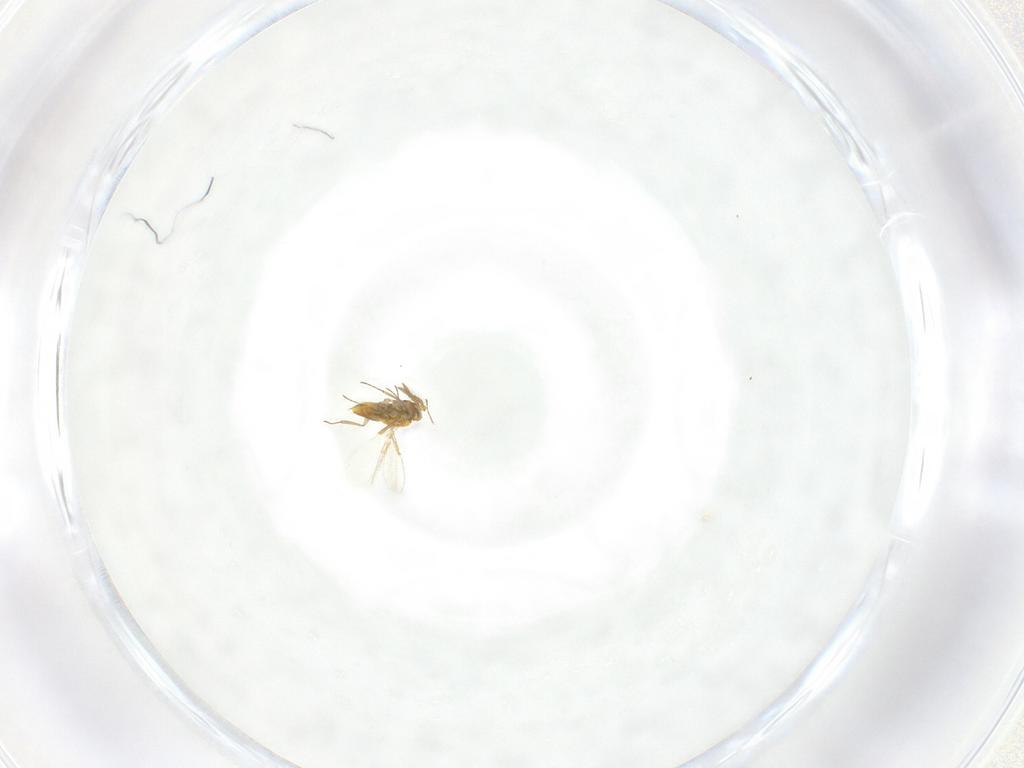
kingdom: Animalia
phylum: Arthropoda
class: Insecta
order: Hymenoptera
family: Aphelinidae
